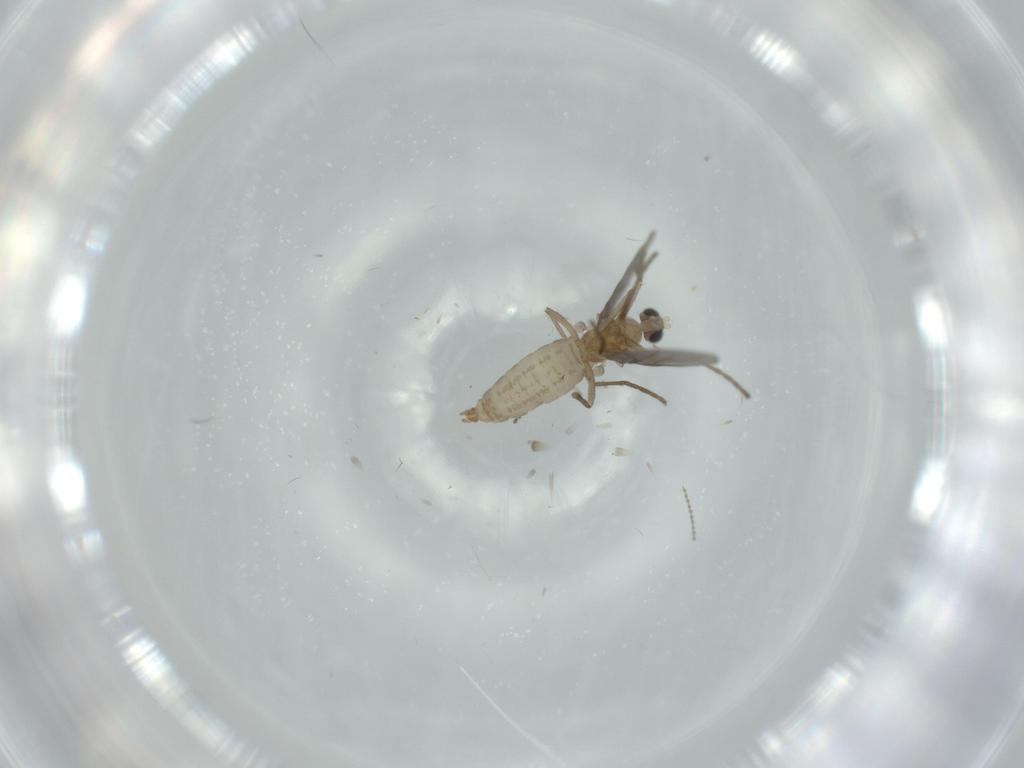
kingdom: Animalia
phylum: Arthropoda
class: Insecta
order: Diptera
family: Cecidomyiidae
